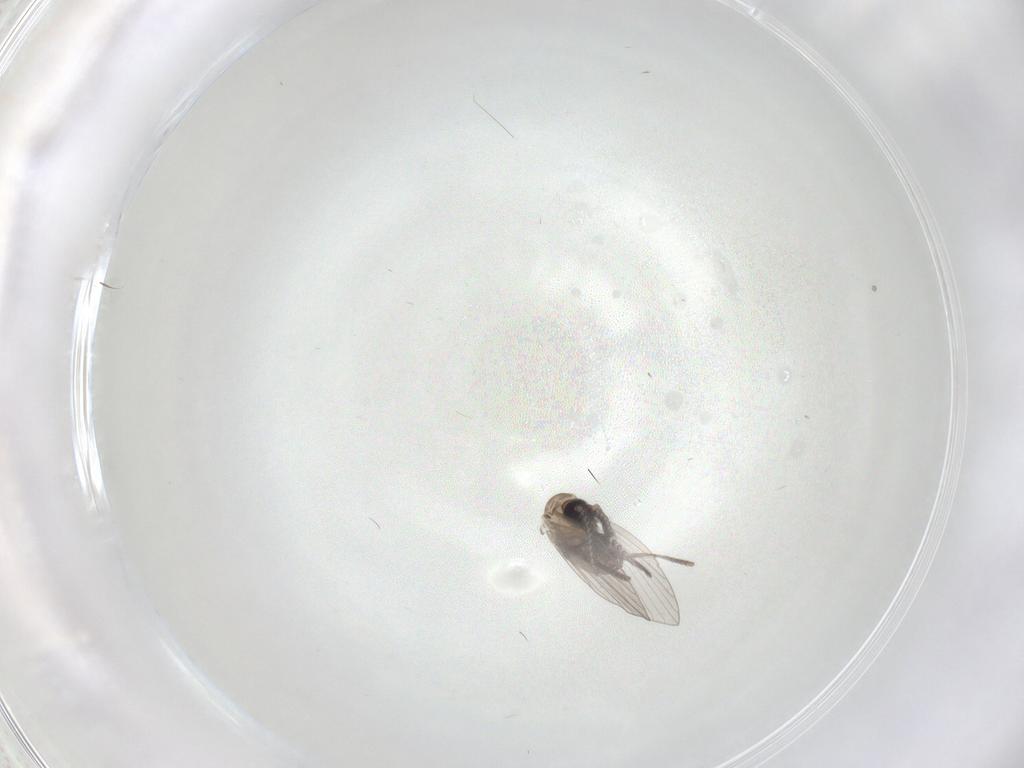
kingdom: Animalia
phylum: Arthropoda
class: Insecta
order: Diptera
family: Psychodidae
